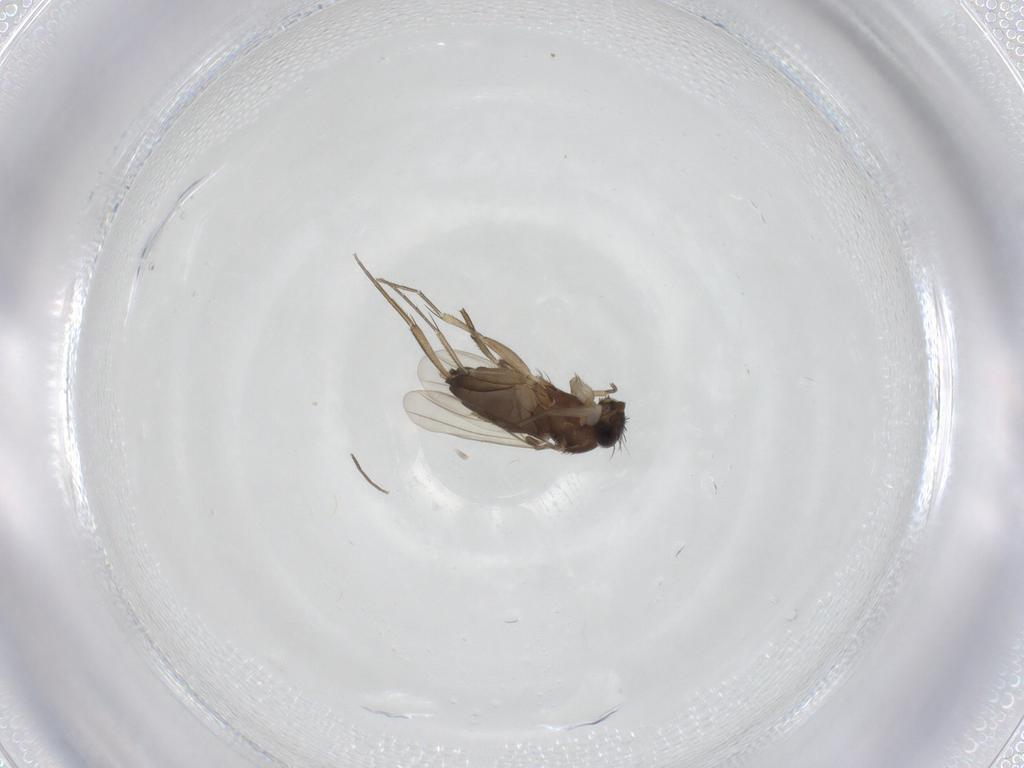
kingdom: Animalia
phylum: Arthropoda
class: Insecta
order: Diptera
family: Phoridae
